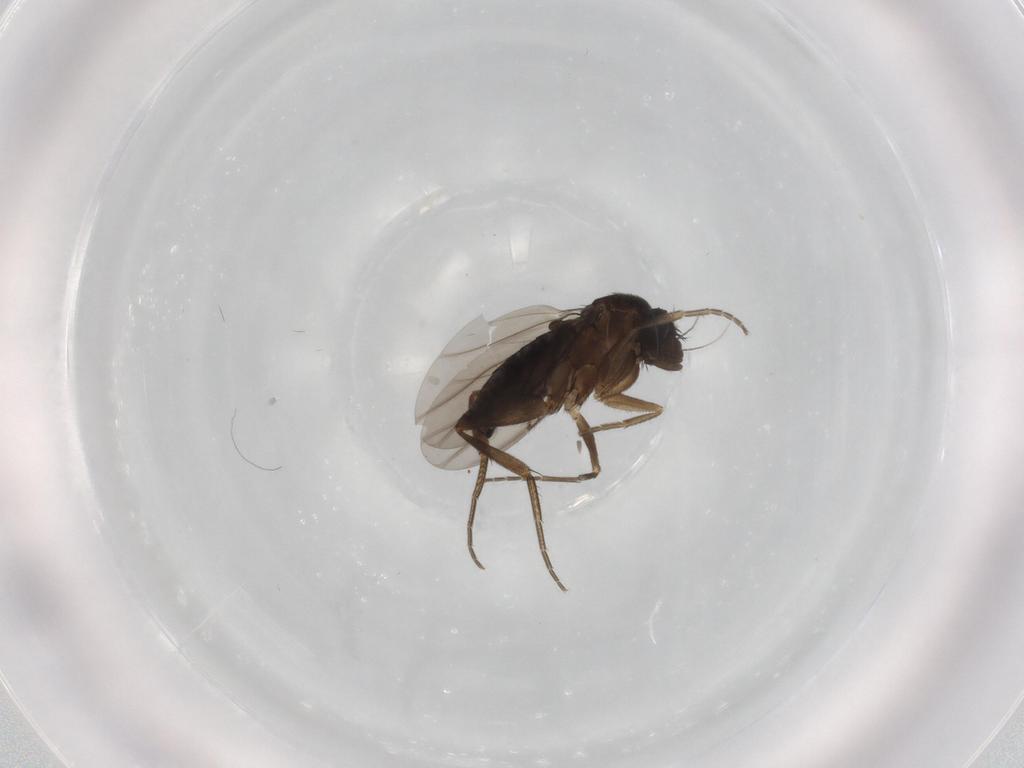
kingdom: Animalia
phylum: Arthropoda
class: Insecta
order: Diptera
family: Phoridae
